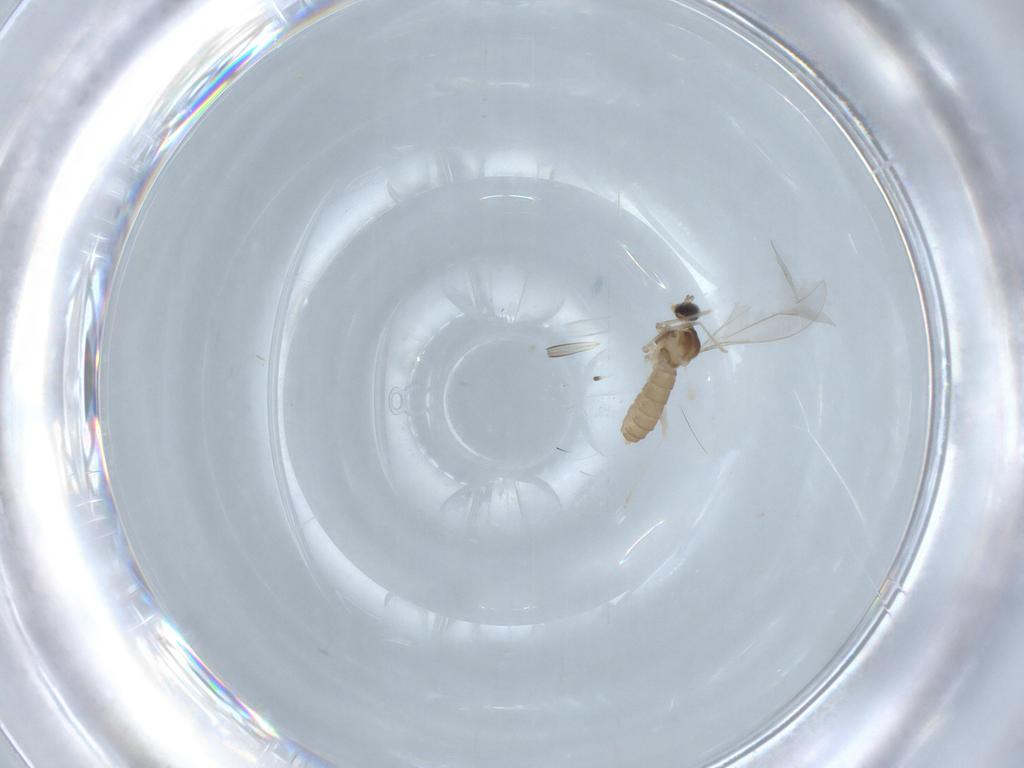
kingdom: Animalia
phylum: Arthropoda
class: Insecta
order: Diptera
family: Cecidomyiidae
